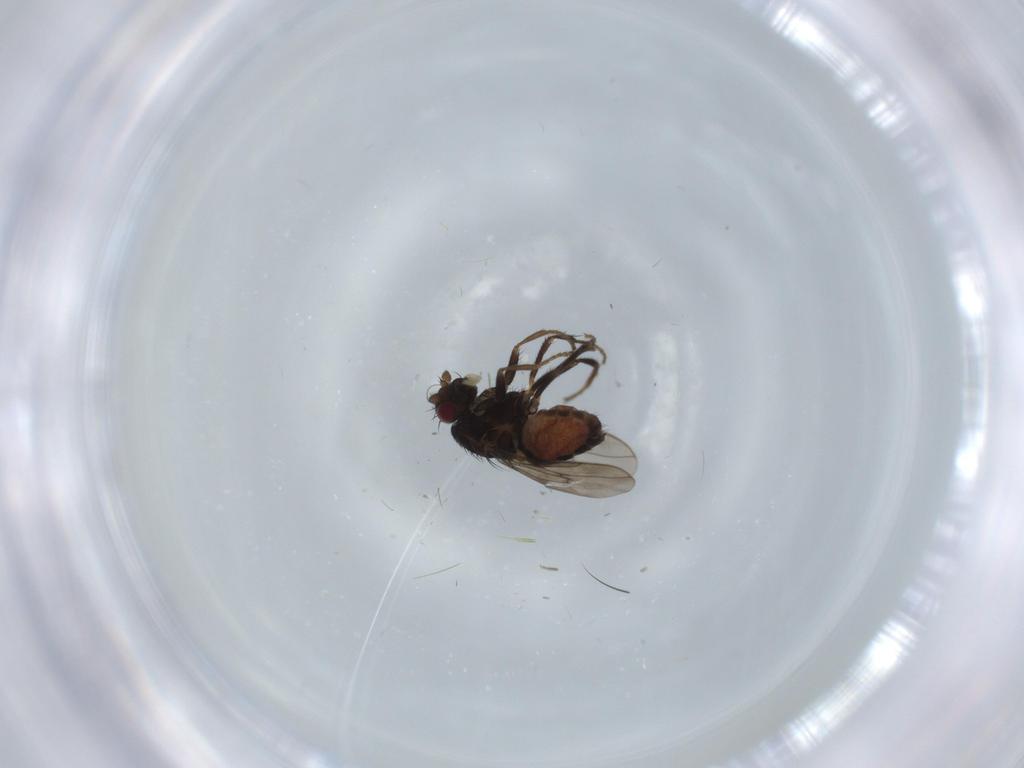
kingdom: Animalia
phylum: Arthropoda
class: Insecta
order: Diptera
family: Cecidomyiidae
